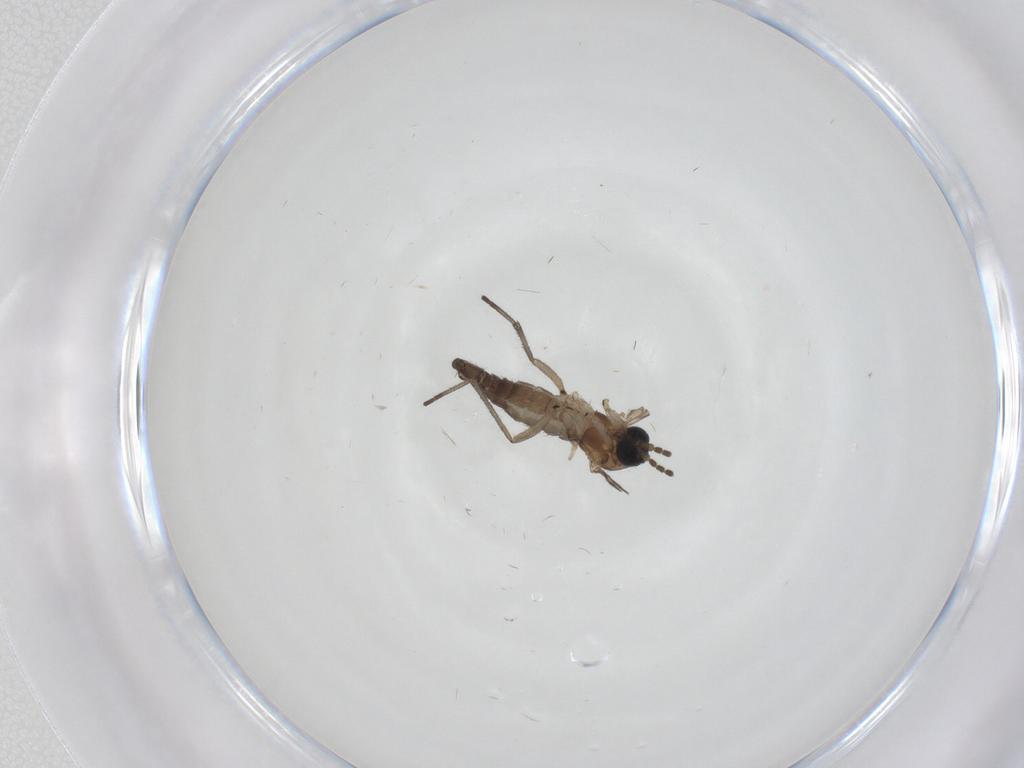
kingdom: Animalia
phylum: Arthropoda
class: Insecta
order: Diptera
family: Sciaridae
